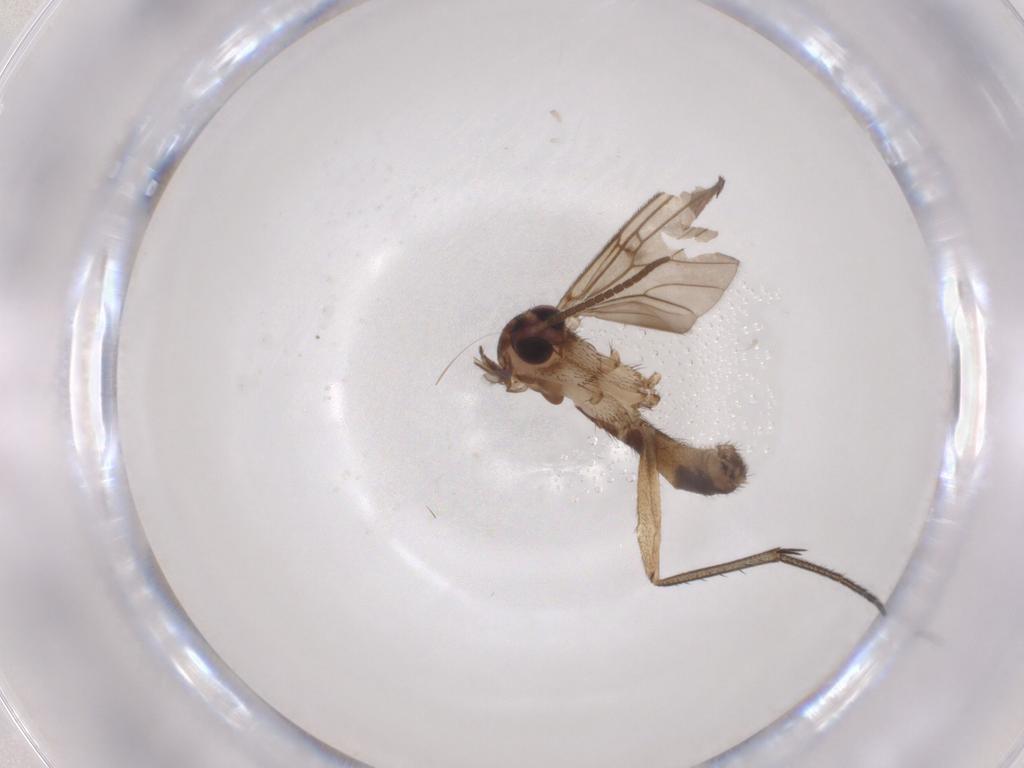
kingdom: Animalia
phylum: Arthropoda
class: Insecta
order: Diptera
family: Mycetophilidae
